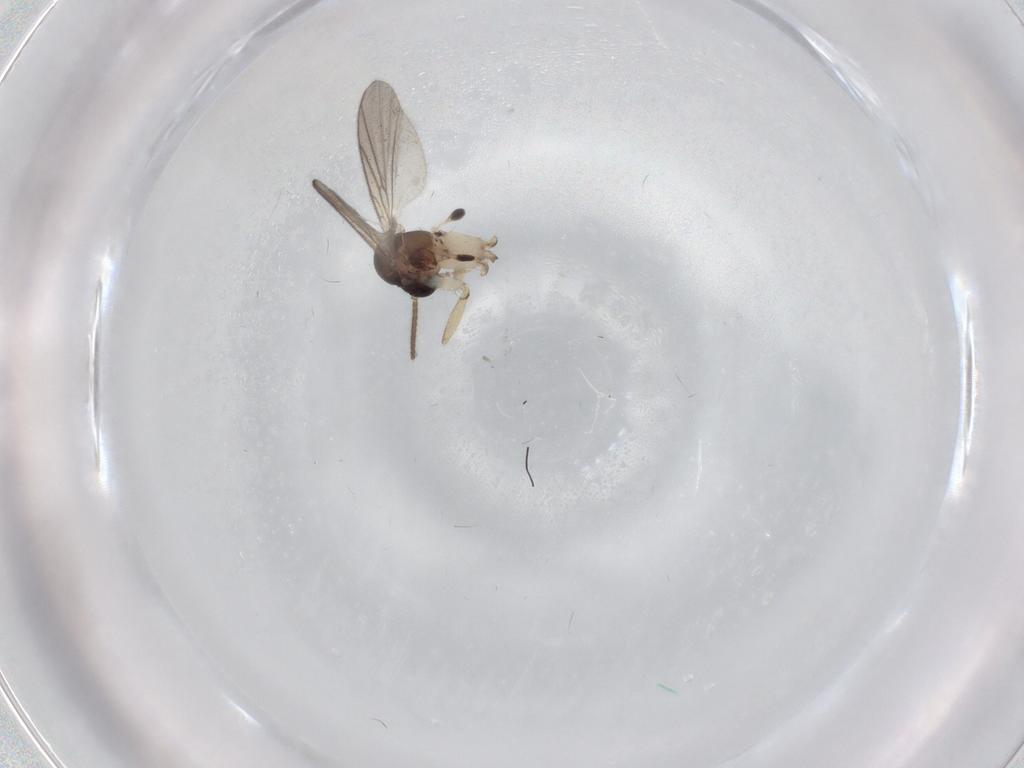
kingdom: Animalia
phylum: Arthropoda
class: Insecta
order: Diptera
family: Mycetophilidae
